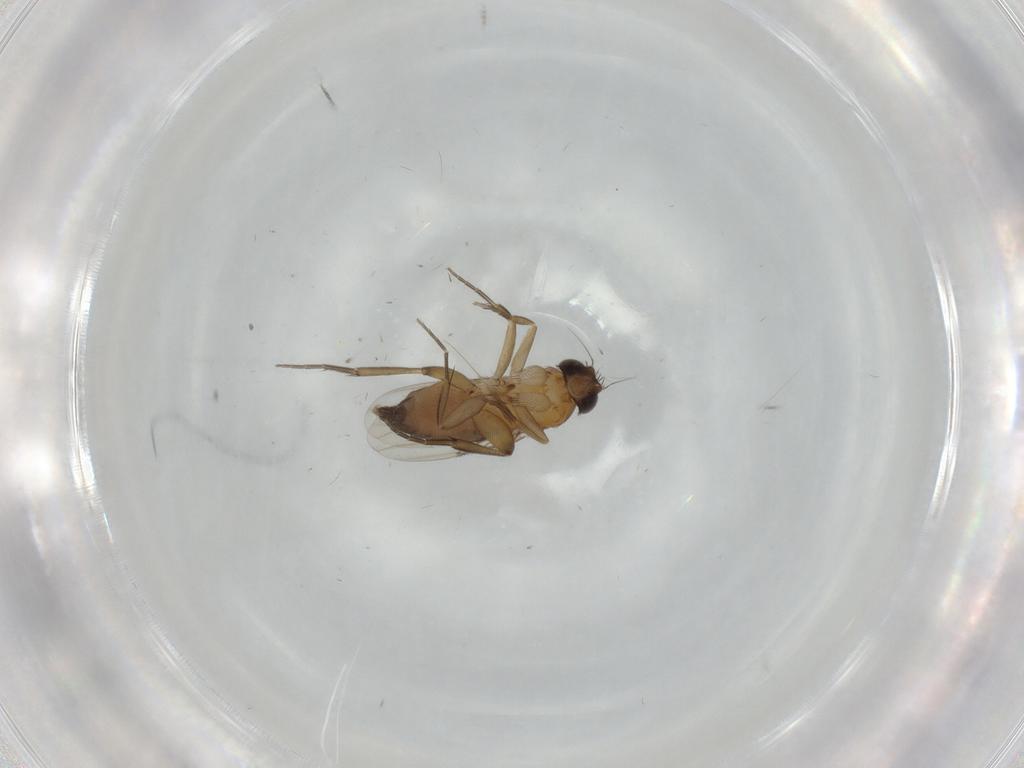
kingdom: Animalia
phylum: Arthropoda
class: Insecta
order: Diptera
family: Phoridae
